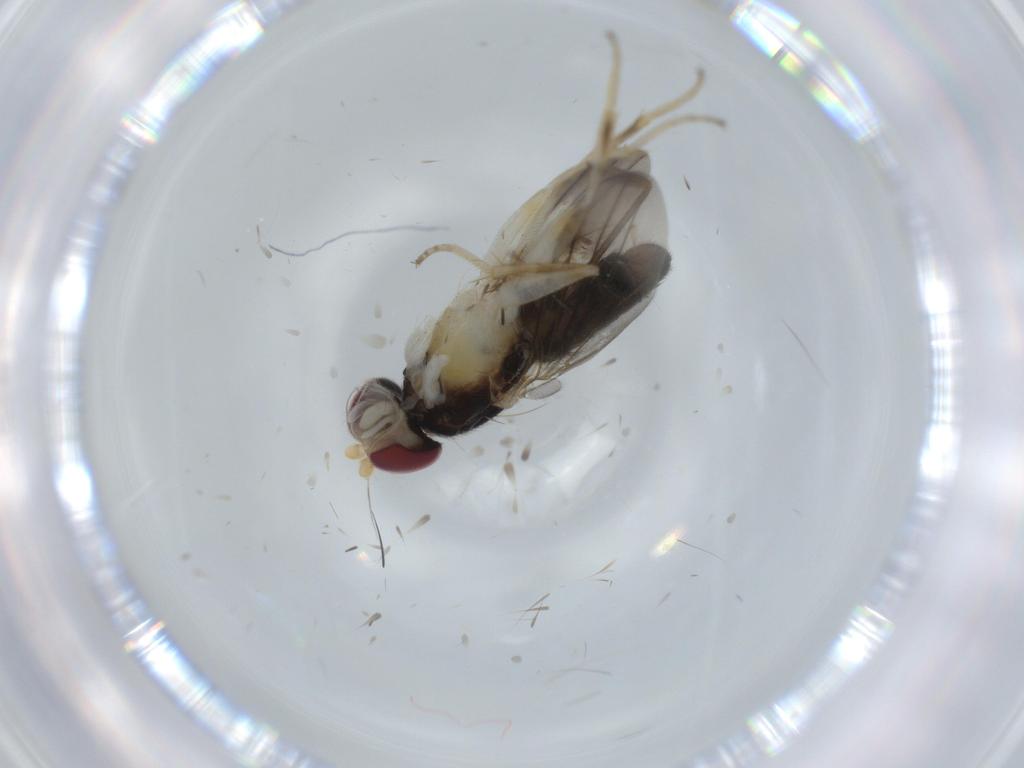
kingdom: Animalia
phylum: Arthropoda
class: Insecta
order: Diptera
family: Clusiidae
